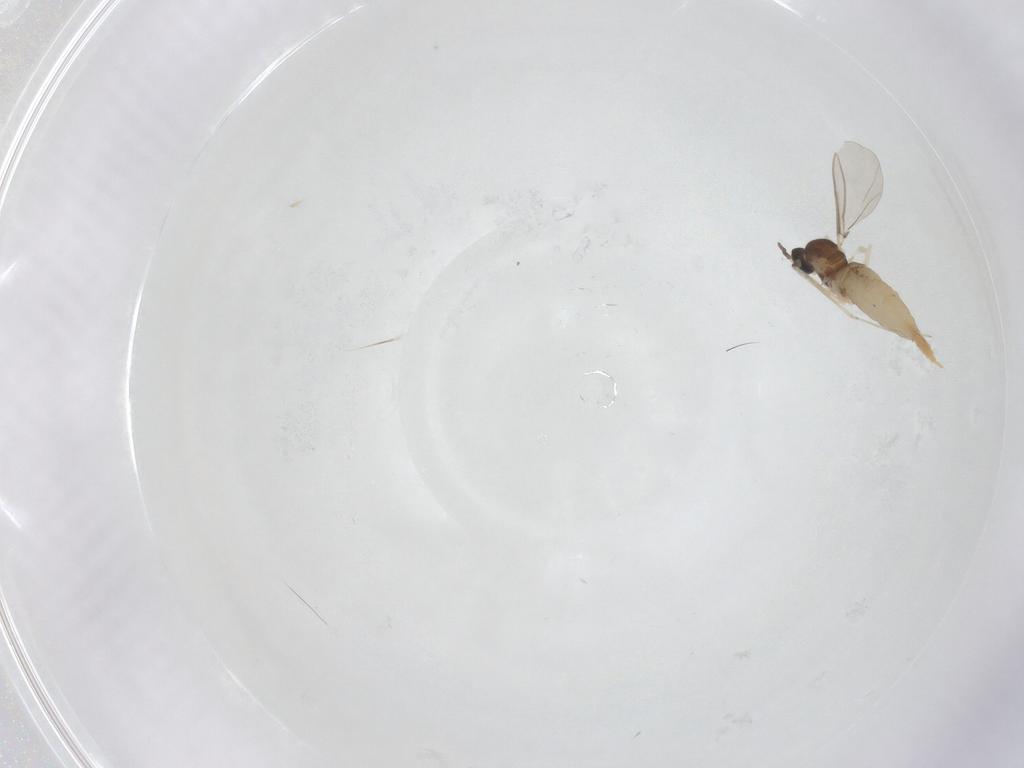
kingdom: Animalia
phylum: Arthropoda
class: Insecta
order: Diptera
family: Cecidomyiidae
